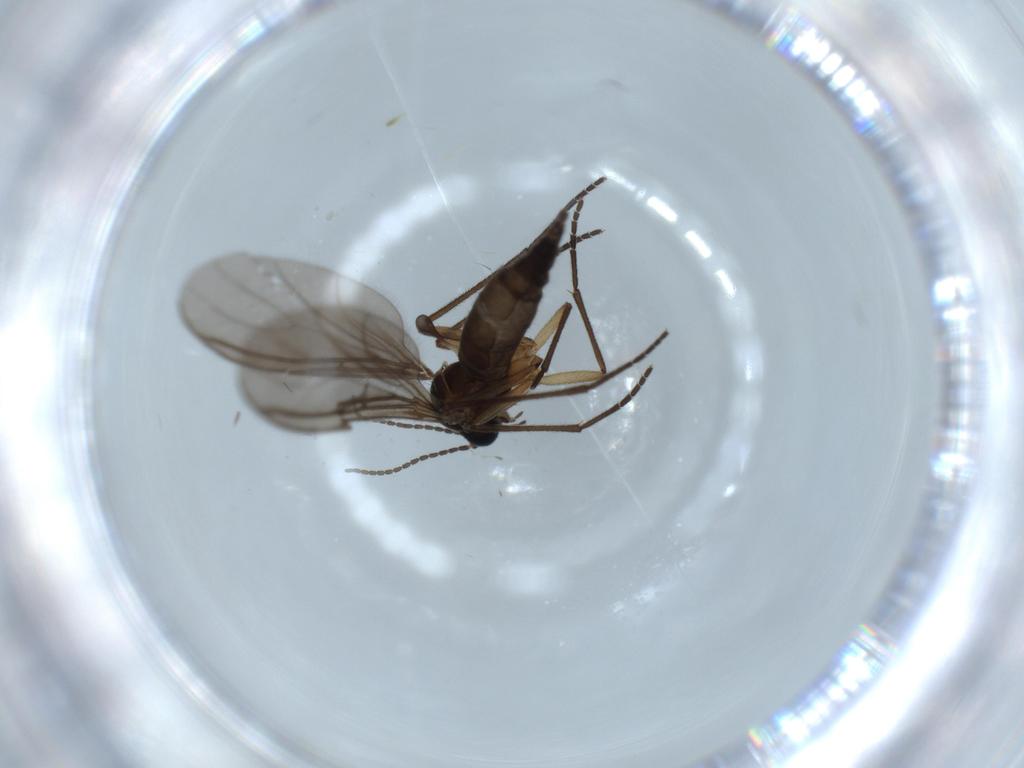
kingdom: Animalia
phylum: Arthropoda
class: Insecta
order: Diptera
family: Sciaridae
